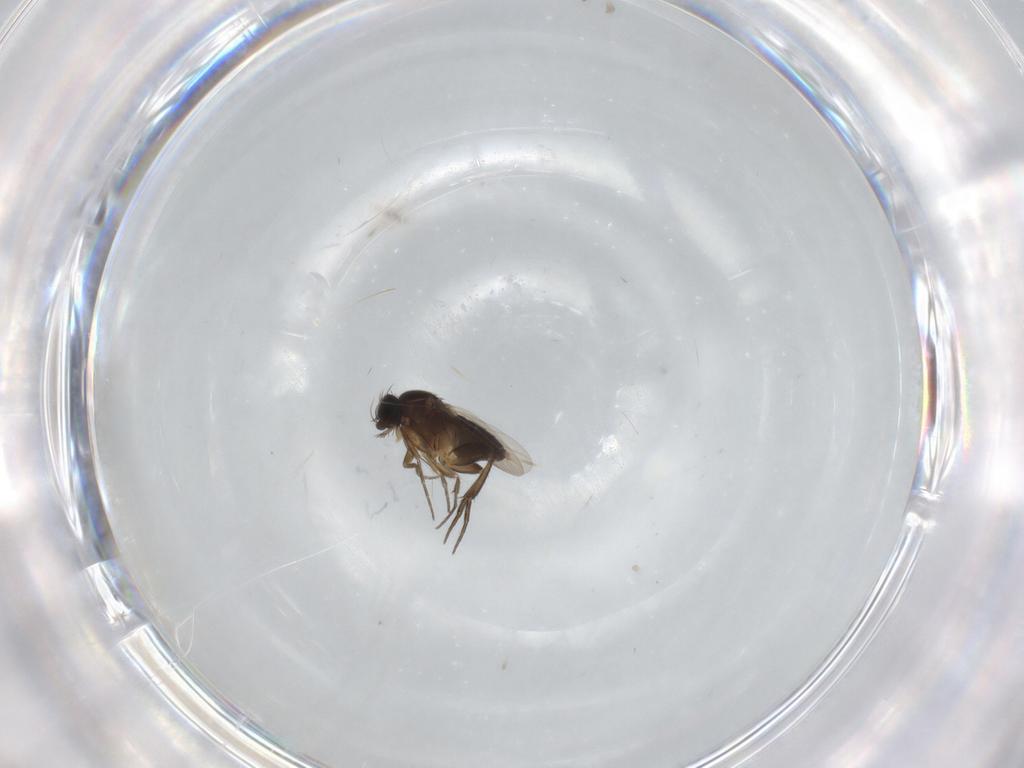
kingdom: Animalia
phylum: Arthropoda
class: Insecta
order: Diptera
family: Phoridae
